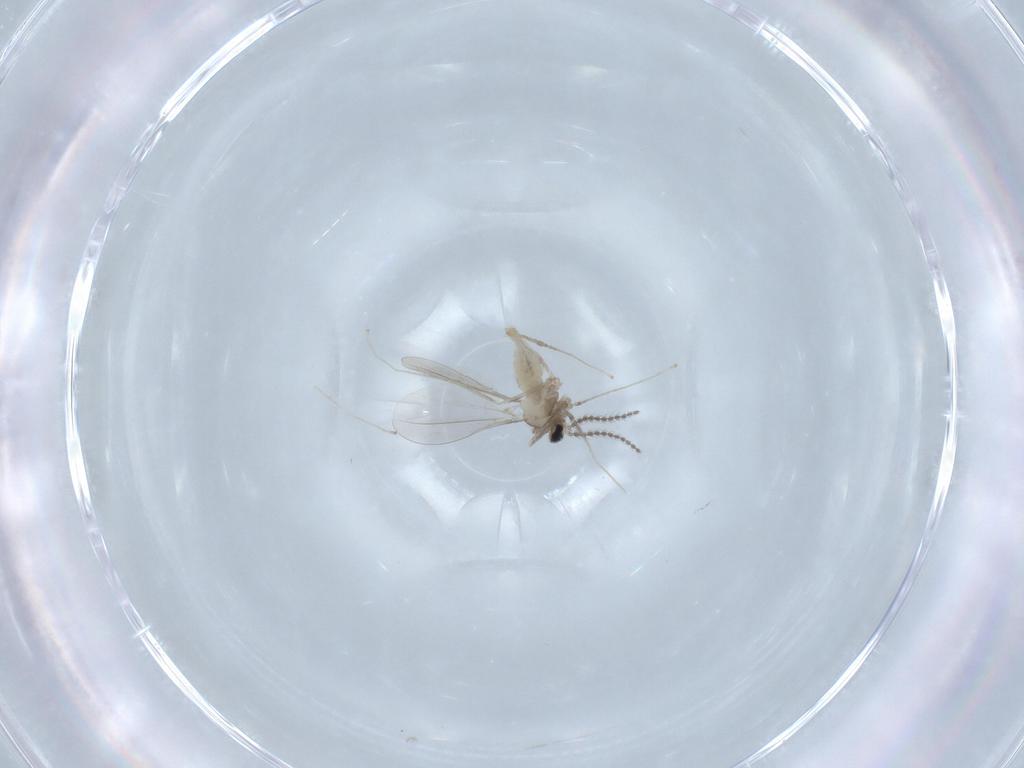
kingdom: Animalia
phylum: Arthropoda
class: Insecta
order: Diptera
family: Cecidomyiidae
